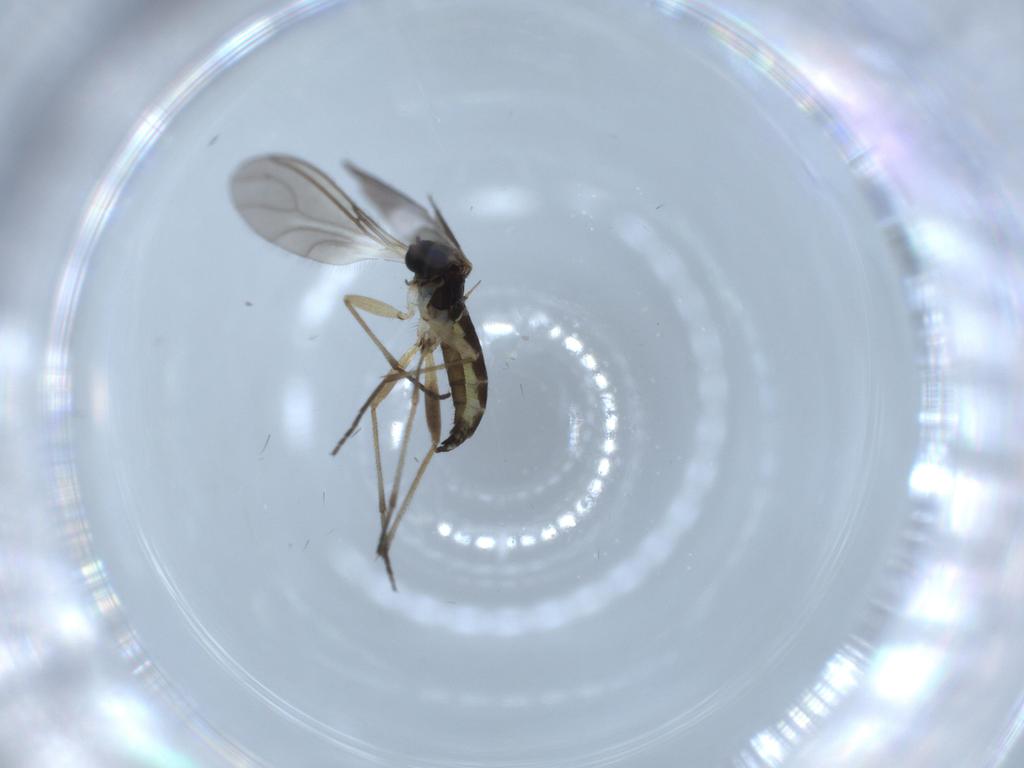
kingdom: Animalia
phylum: Arthropoda
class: Insecta
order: Diptera
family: Sciaridae
